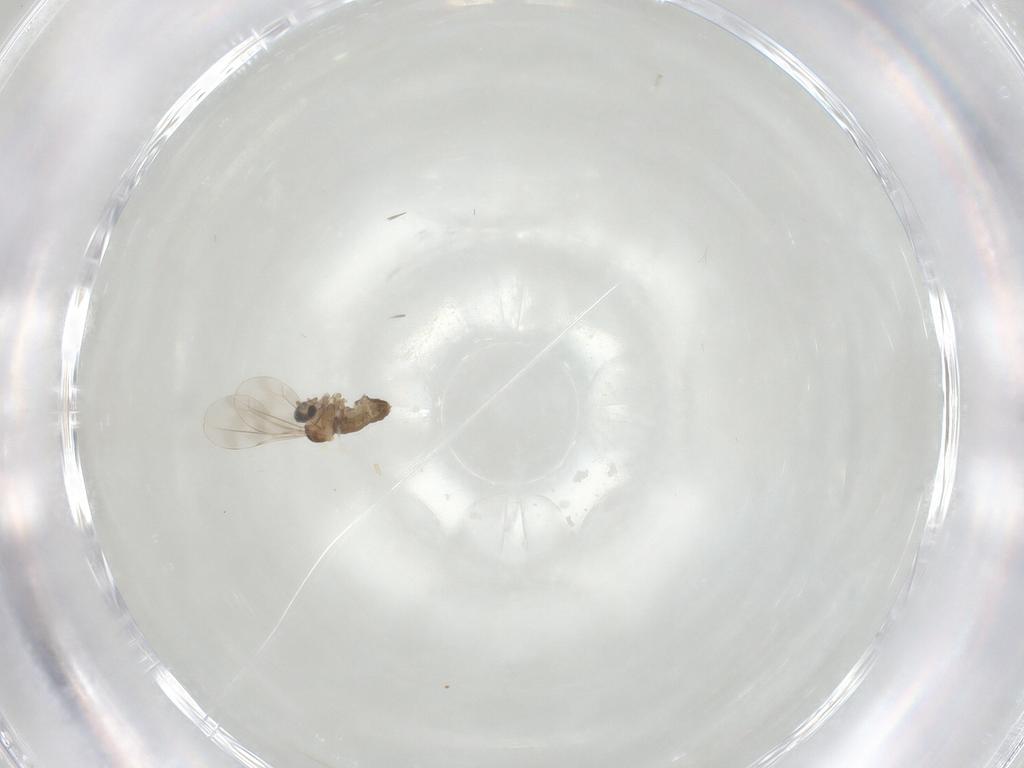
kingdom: Animalia
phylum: Arthropoda
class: Insecta
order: Diptera
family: Cecidomyiidae
